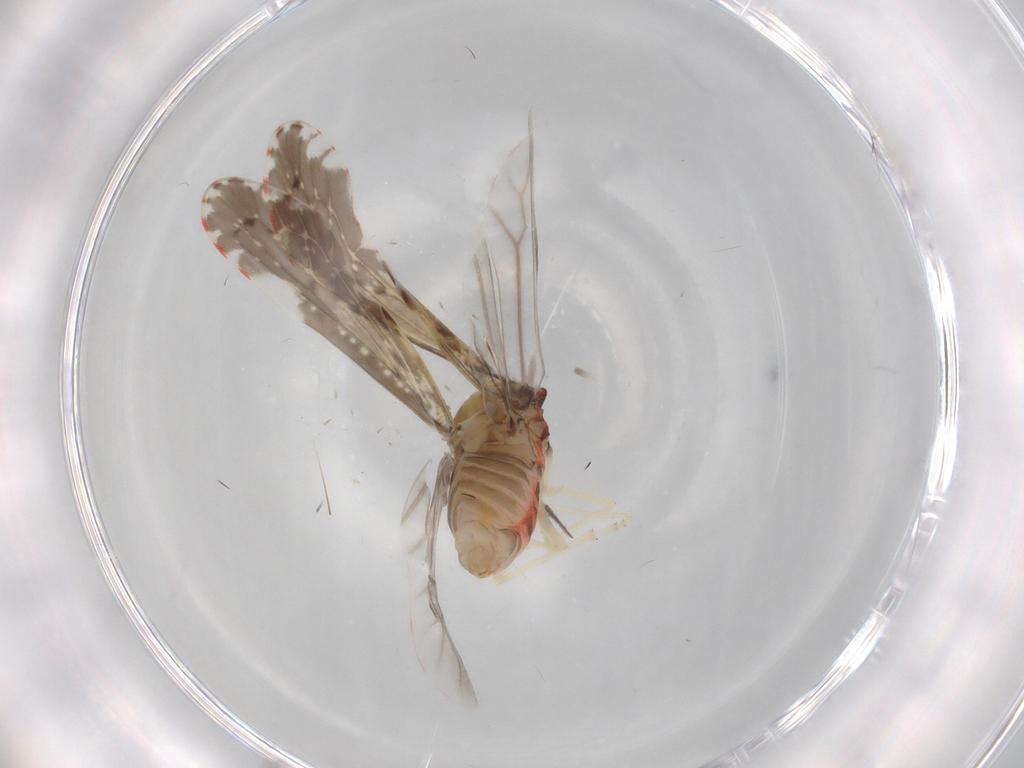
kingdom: Animalia
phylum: Arthropoda
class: Insecta
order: Hemiptera
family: Derbidae
